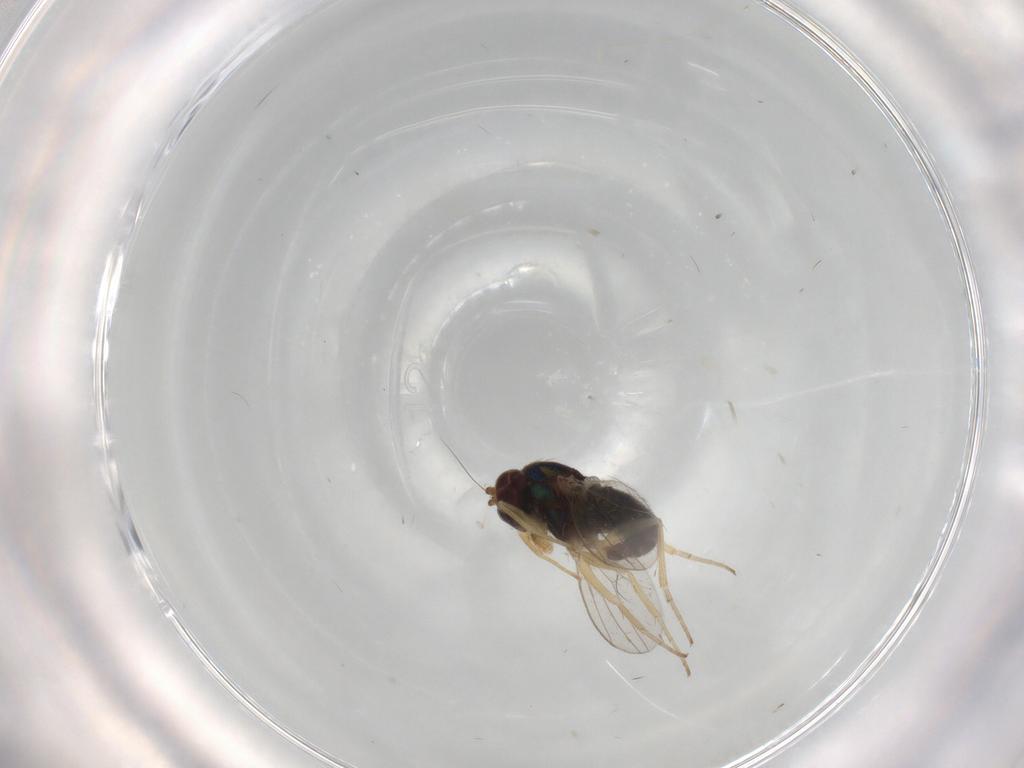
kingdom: Animalia
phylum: Arthropoda
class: Insecta
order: Diptera
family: Dolichopodidae
